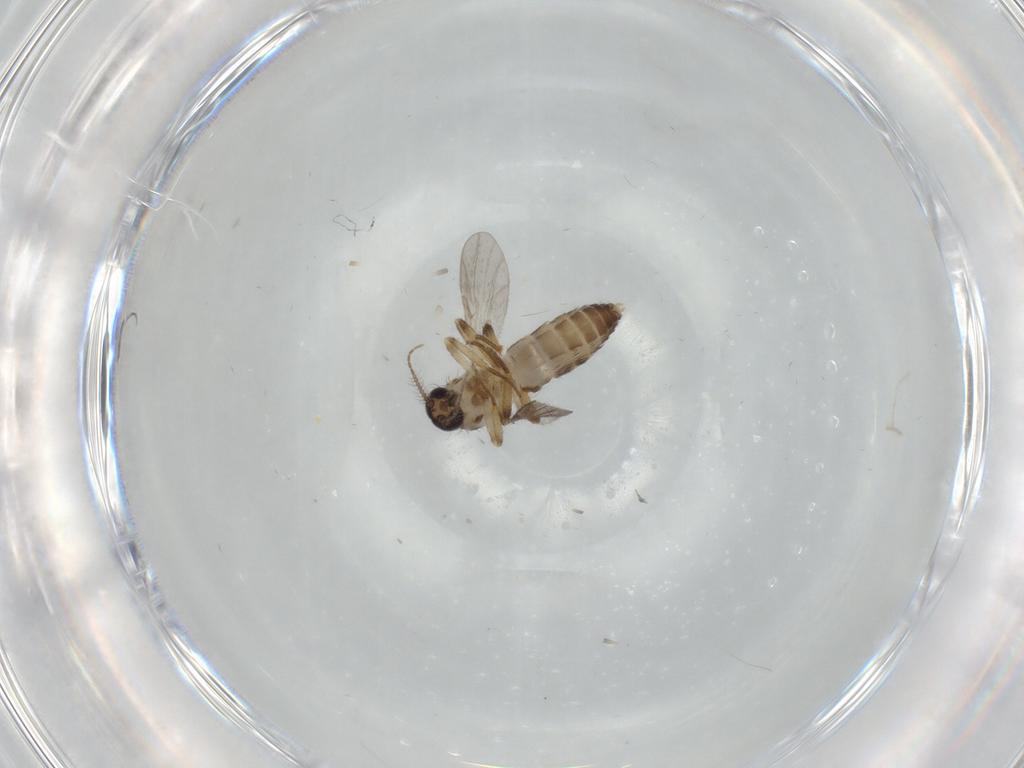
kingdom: Animalia
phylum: Arthropoda
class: Insecta
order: Diptera
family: Ceratopogonidae
